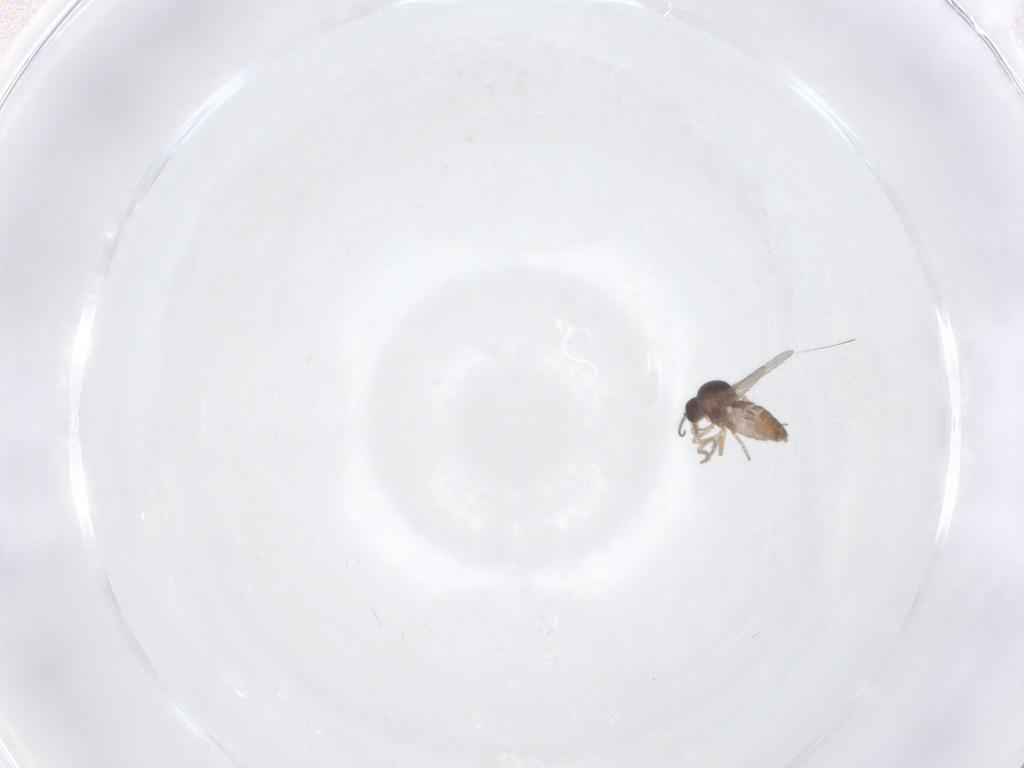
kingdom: Animalia
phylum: Arthropoda
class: Insecta
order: Diptera
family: Ceratopogonidae
